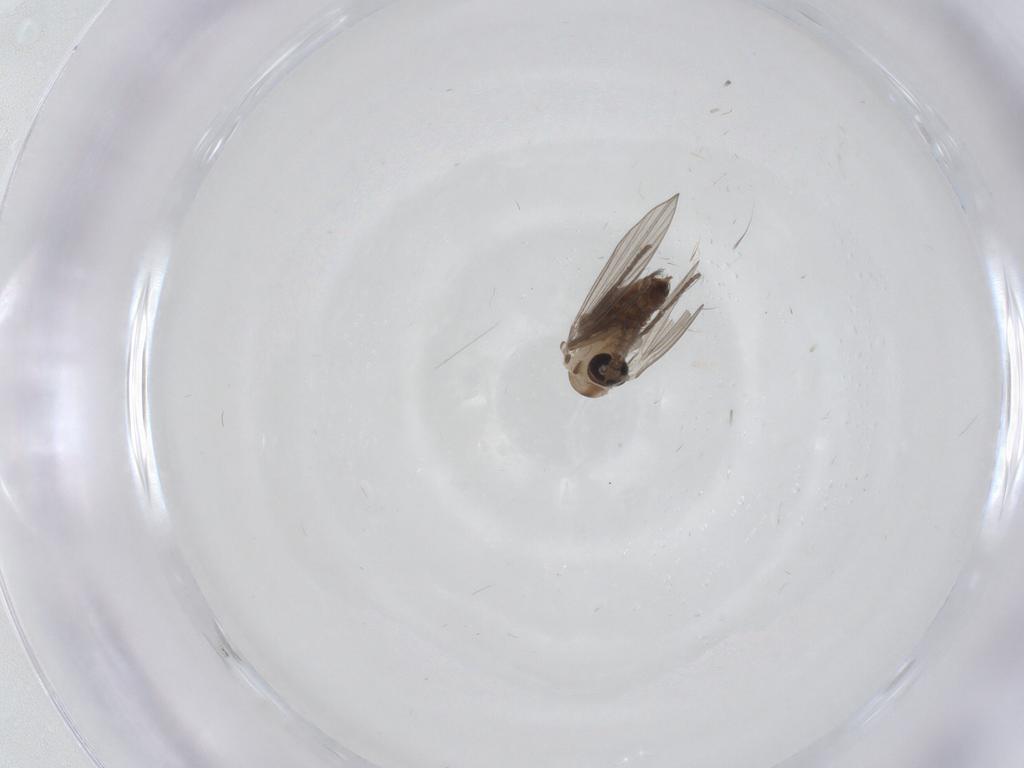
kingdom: Animalia
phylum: Arthropoda
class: Insecta
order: Diptera
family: Psychodidae
